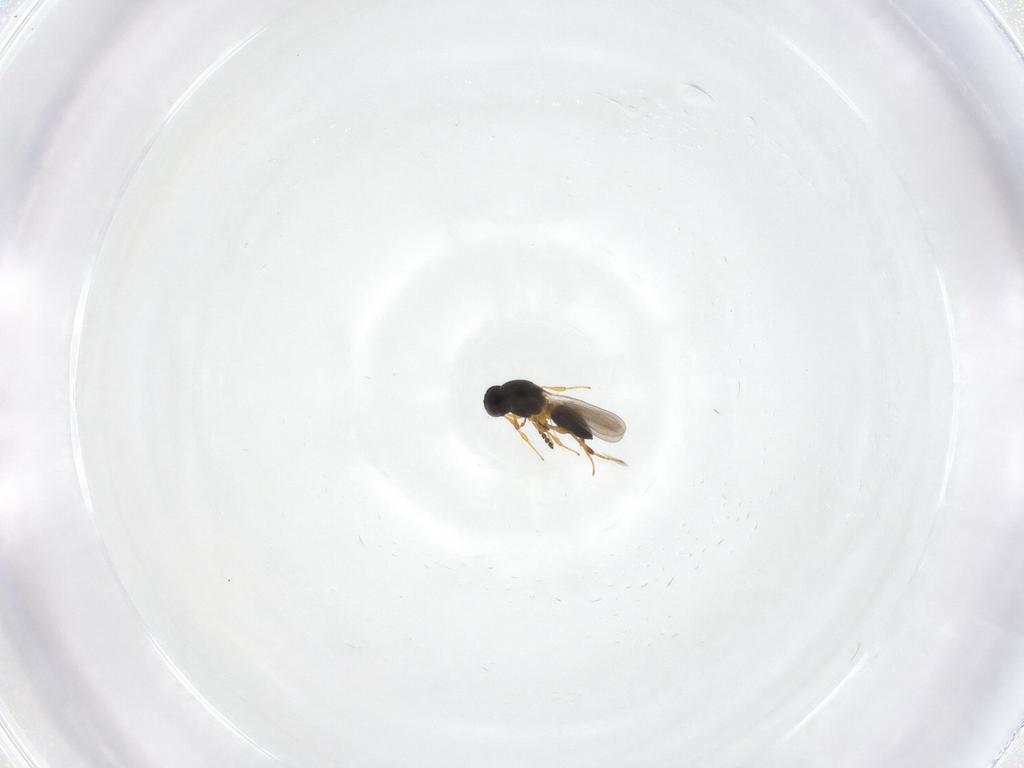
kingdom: Animalia
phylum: Arthropoda
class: Insecta
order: Hymenoptera
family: Platygastridae
